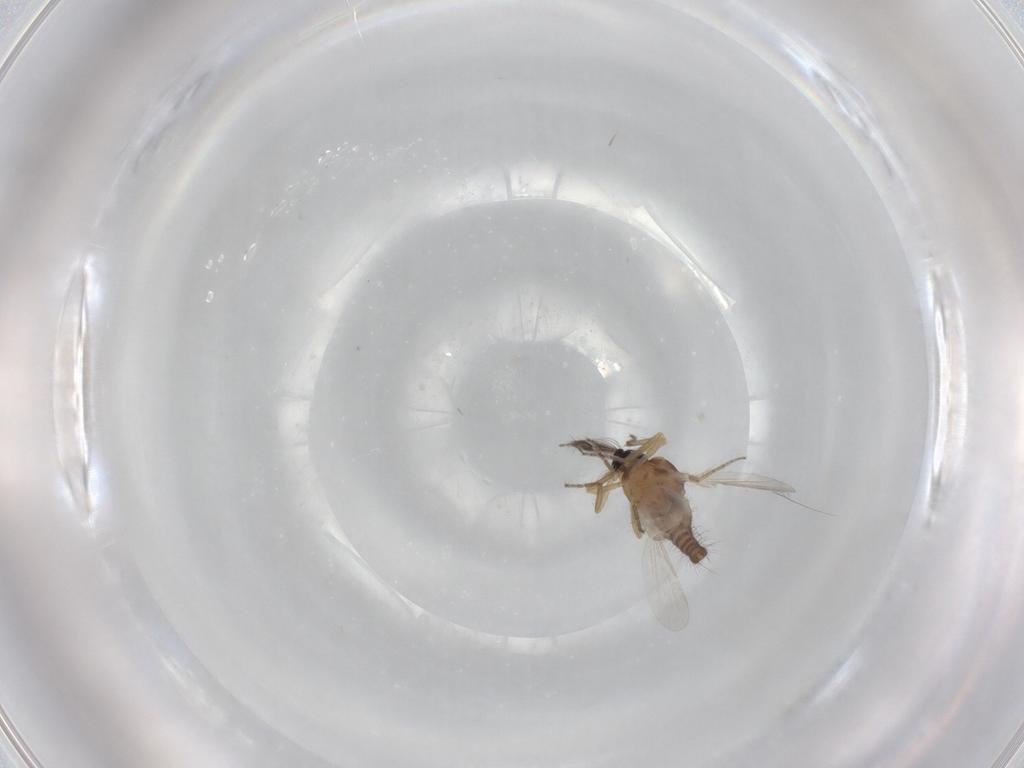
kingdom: Animalia
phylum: Arthropoda
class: Insecta
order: Diptera
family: Ceratopogonidae
